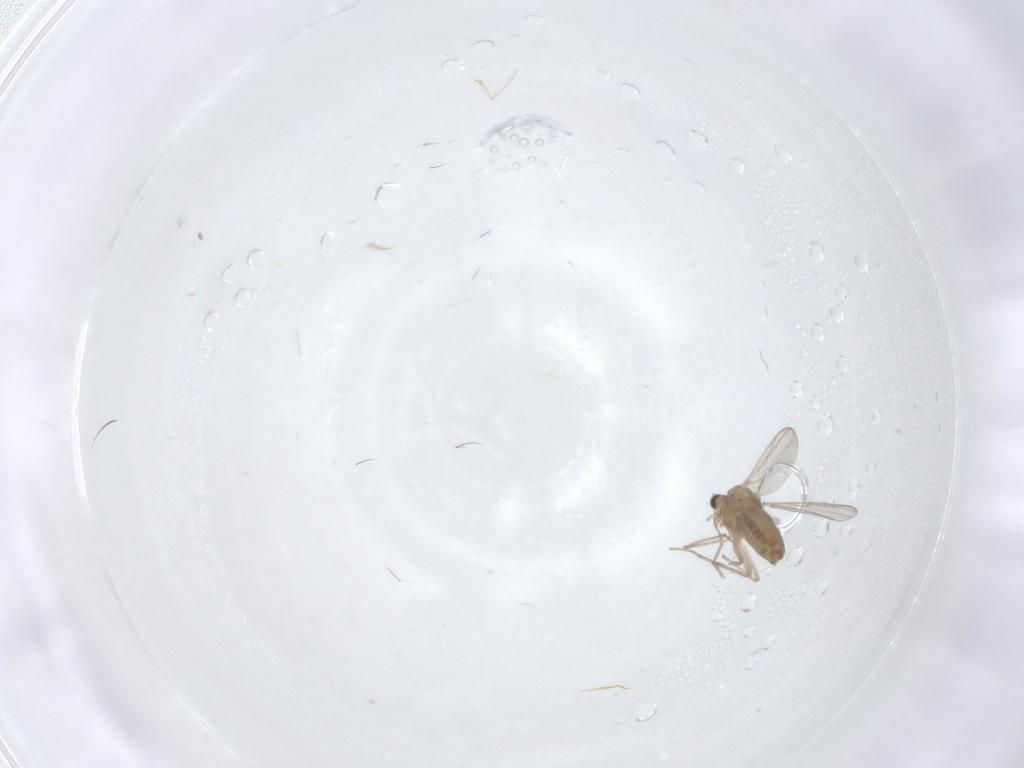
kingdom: Animalia
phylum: Arthropoda
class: Insecta
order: Diptera
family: Chironomidae
